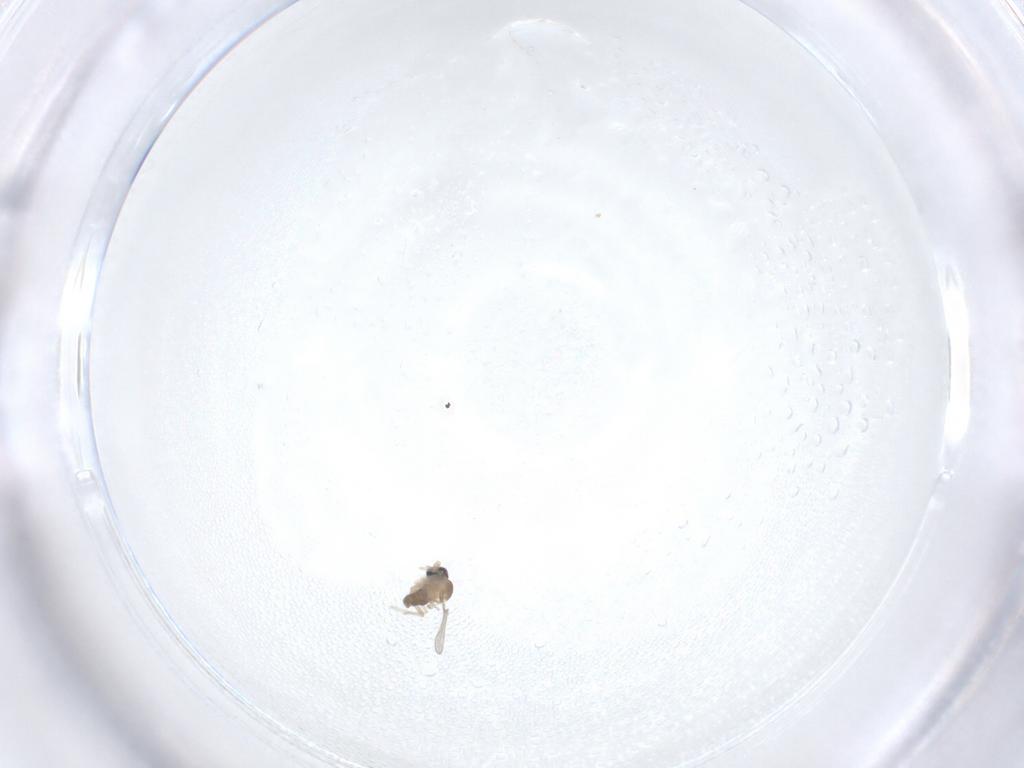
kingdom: Animalia
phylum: Arthropoda
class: Insecta
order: Diptera
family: Cecidomyiidae
